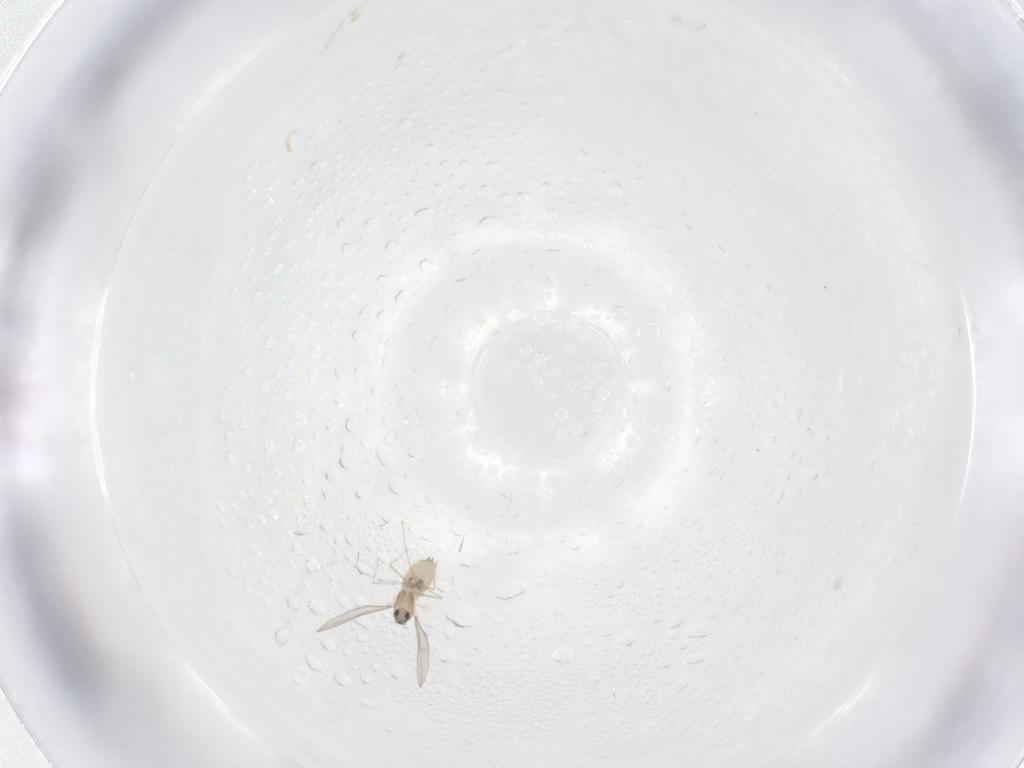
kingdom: Animalia
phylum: Arthropoda
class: Insecta
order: Diptera
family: Cecidomyiidae
